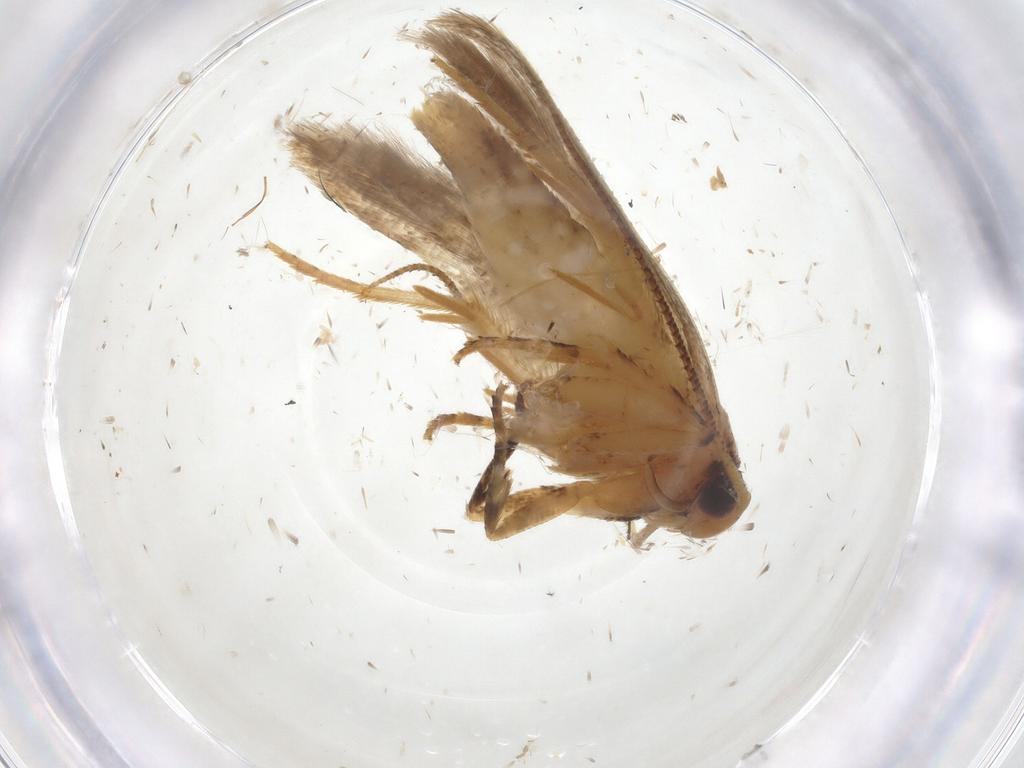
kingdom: Animalia
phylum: Arthropoda
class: Insecta
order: Lepidoptera
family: Gelechiidae
